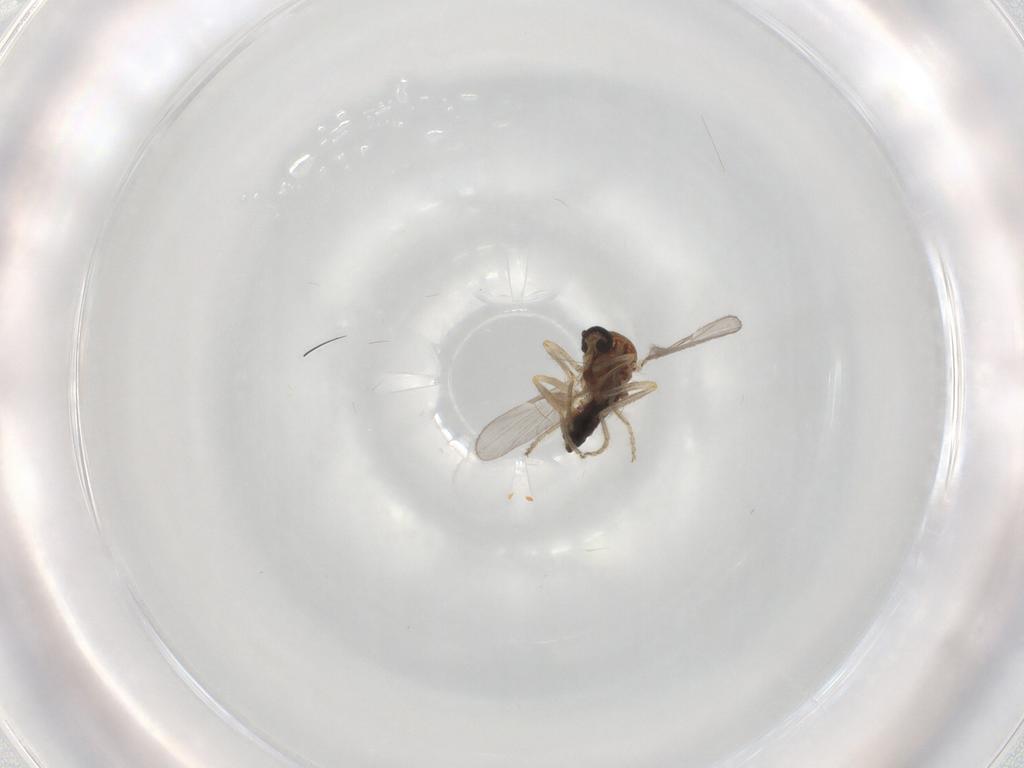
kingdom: Animalia
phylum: Arthropoda
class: Insecta
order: Diptera
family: Ceratopogonidae
